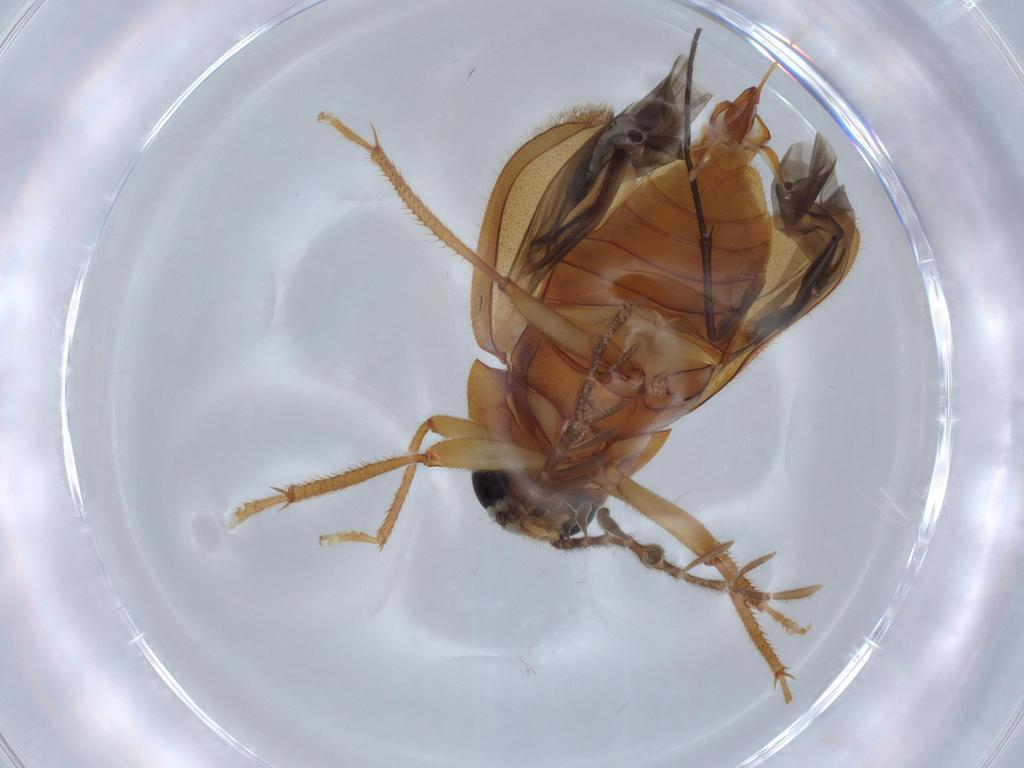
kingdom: Animalia
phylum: Arthropoda
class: Insecta
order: Coleoptera
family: Ptilodactylidae
